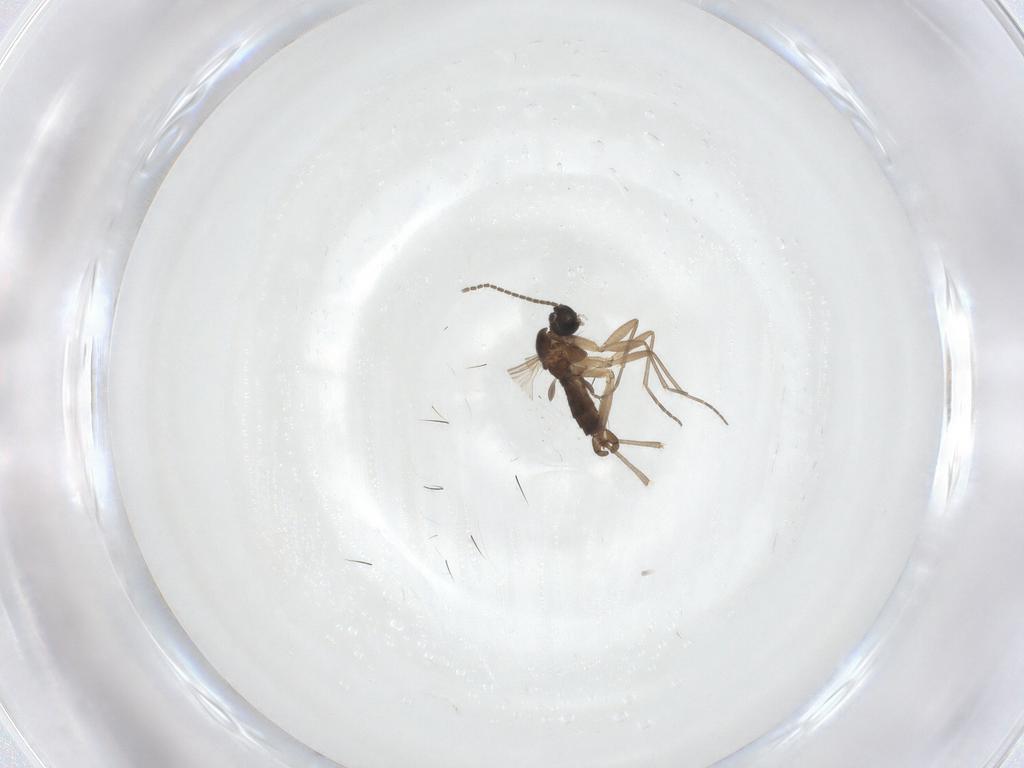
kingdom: Animalia
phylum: Arthropoda
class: Insecta
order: Diptera
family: Sciaridae
